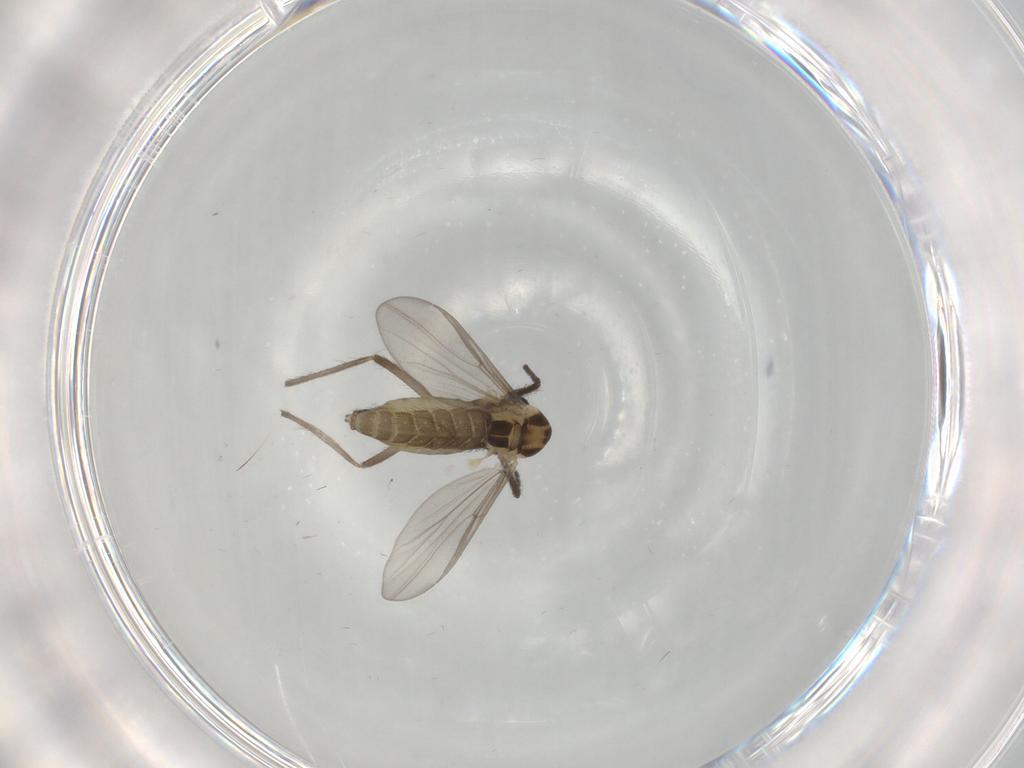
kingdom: Animalia
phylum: Arthropoda
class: Insecta
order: Diptera
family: Chironomidae
